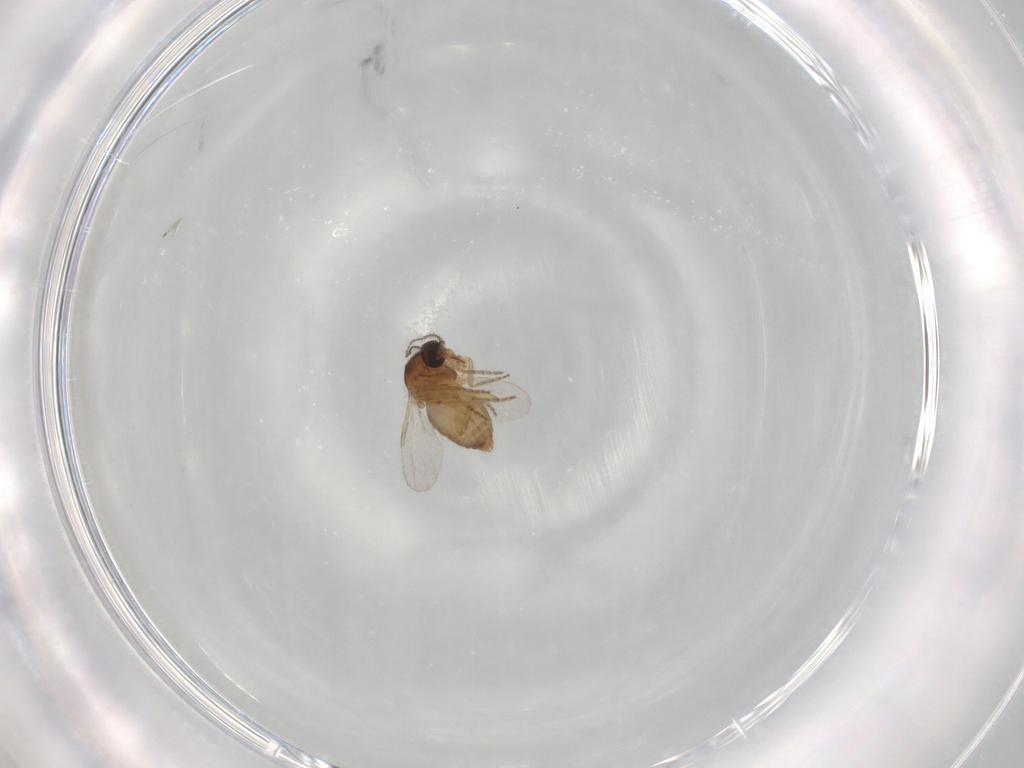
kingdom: Animalia
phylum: Arthropoda
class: Insecta
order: Diptera
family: Ceratopogonidae
